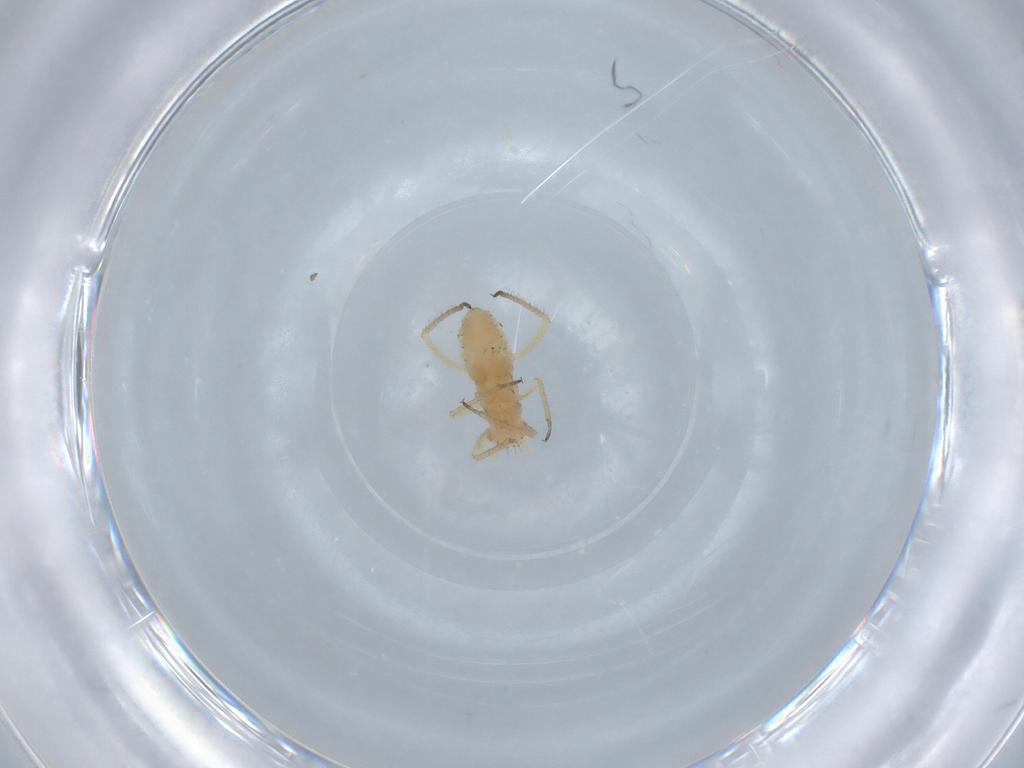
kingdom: Animalia
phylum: Arthropoda
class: Insecta
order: Hemiptera
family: Aphididae
